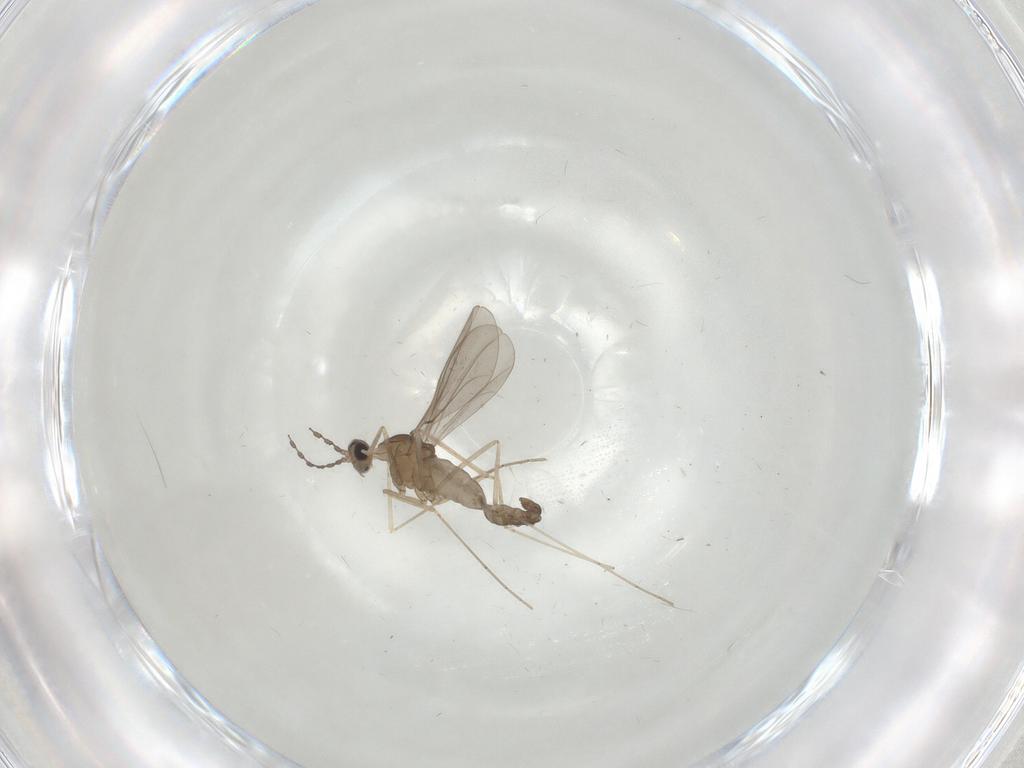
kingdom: Animalia
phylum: Arthropoda
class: Insecta
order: Diptera
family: Cecidomyiidae
